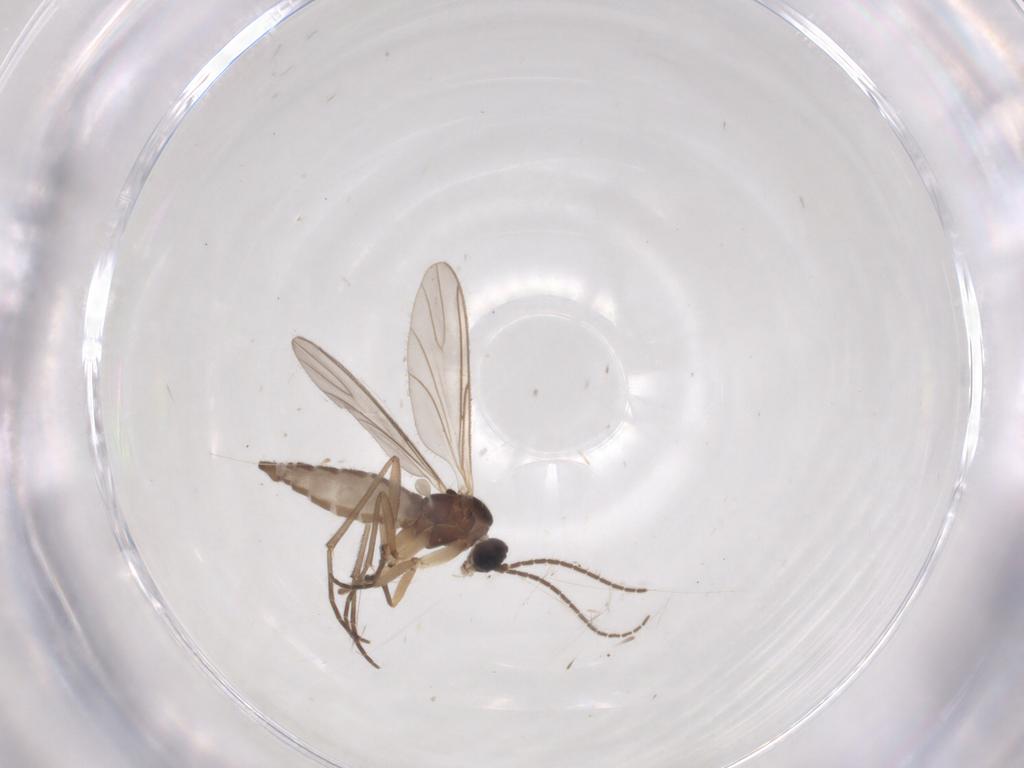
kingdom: Animalia
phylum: Arthropoda
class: Insecta
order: Diptera
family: Sciaridae
